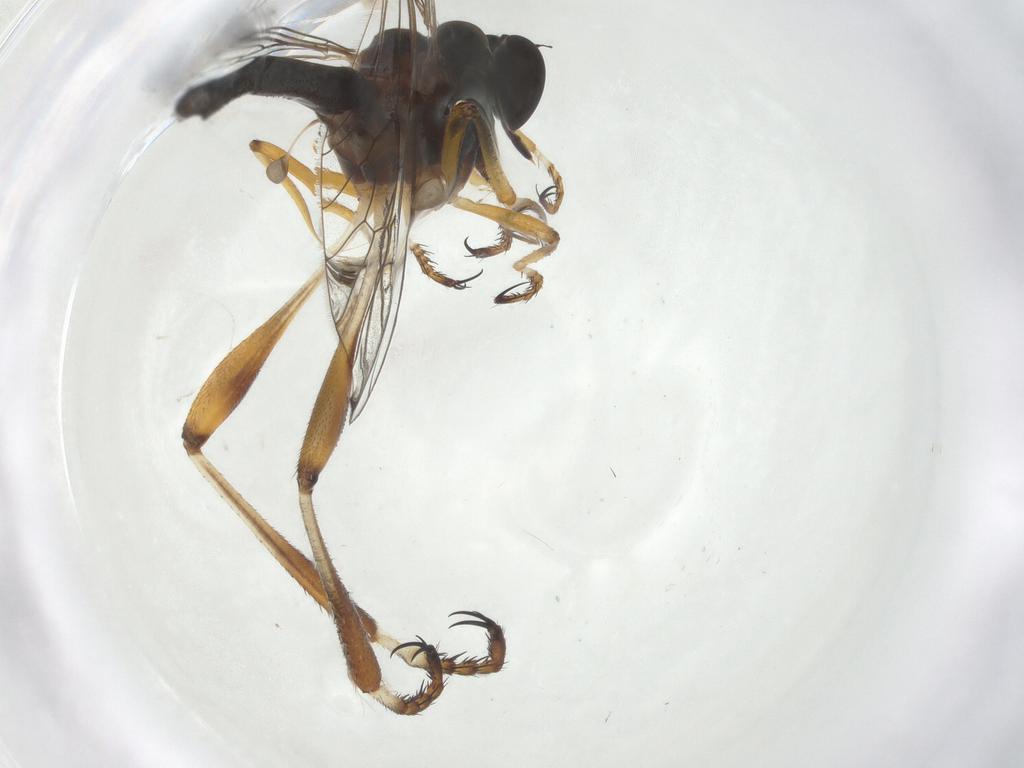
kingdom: Animalia
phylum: Arthropoda
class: Insecta
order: Diptera
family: Asilidae
